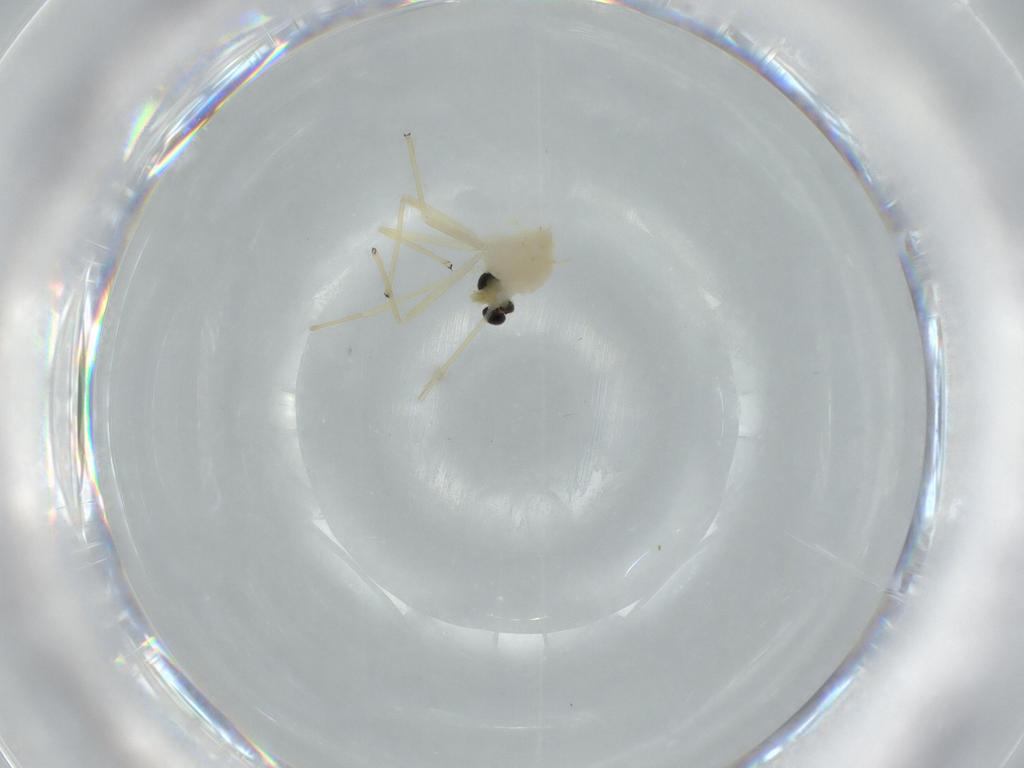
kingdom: Animalia
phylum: Arthropoda
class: Insecta
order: Diptera
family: Chironomidae
